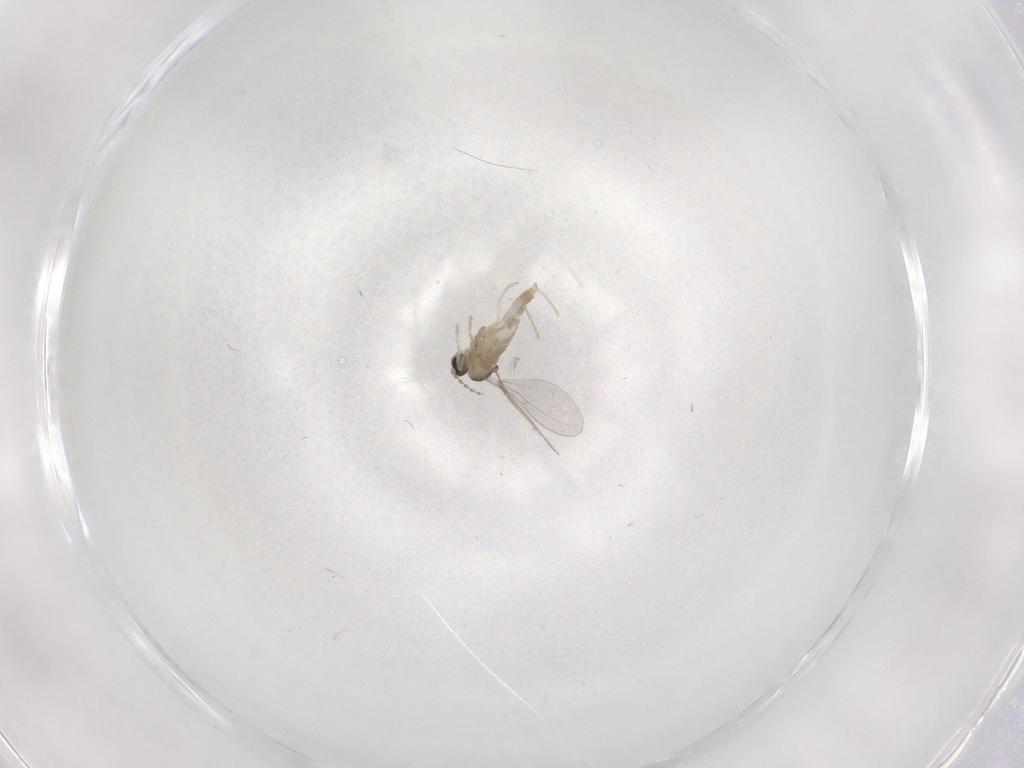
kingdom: Animalia
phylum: Arthropoda
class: Insecta
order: Diptera
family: Cecidomyiidae
